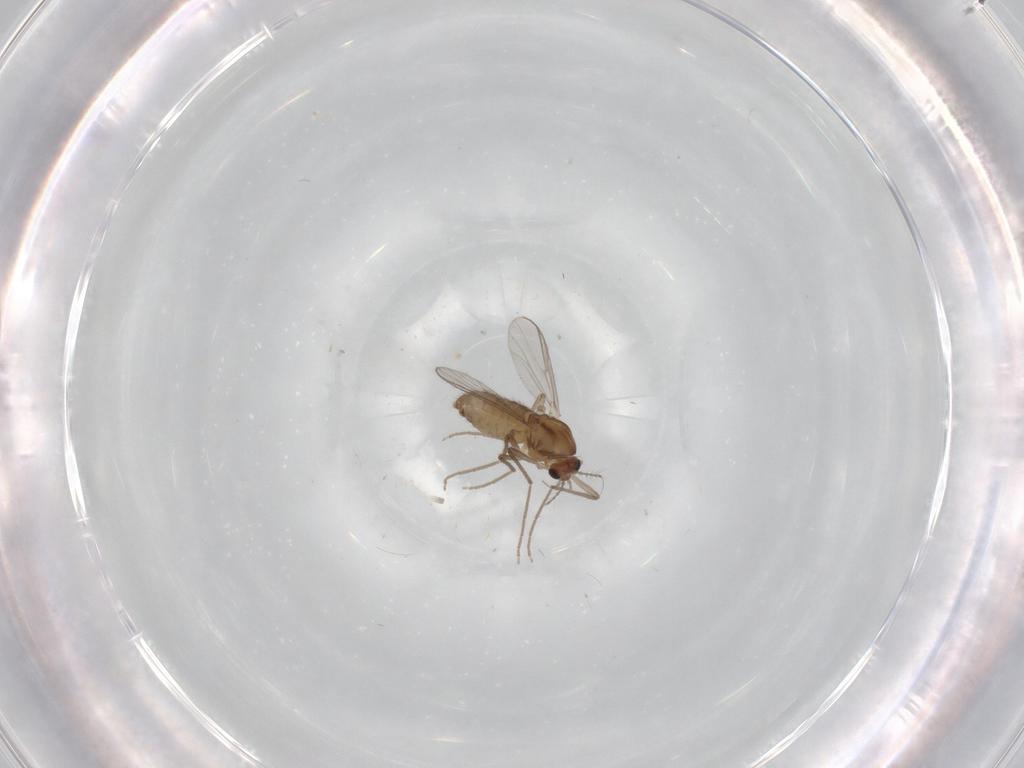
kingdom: Animalia
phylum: Arthropoda
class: Insecta
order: Diptera
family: Chironomidae
